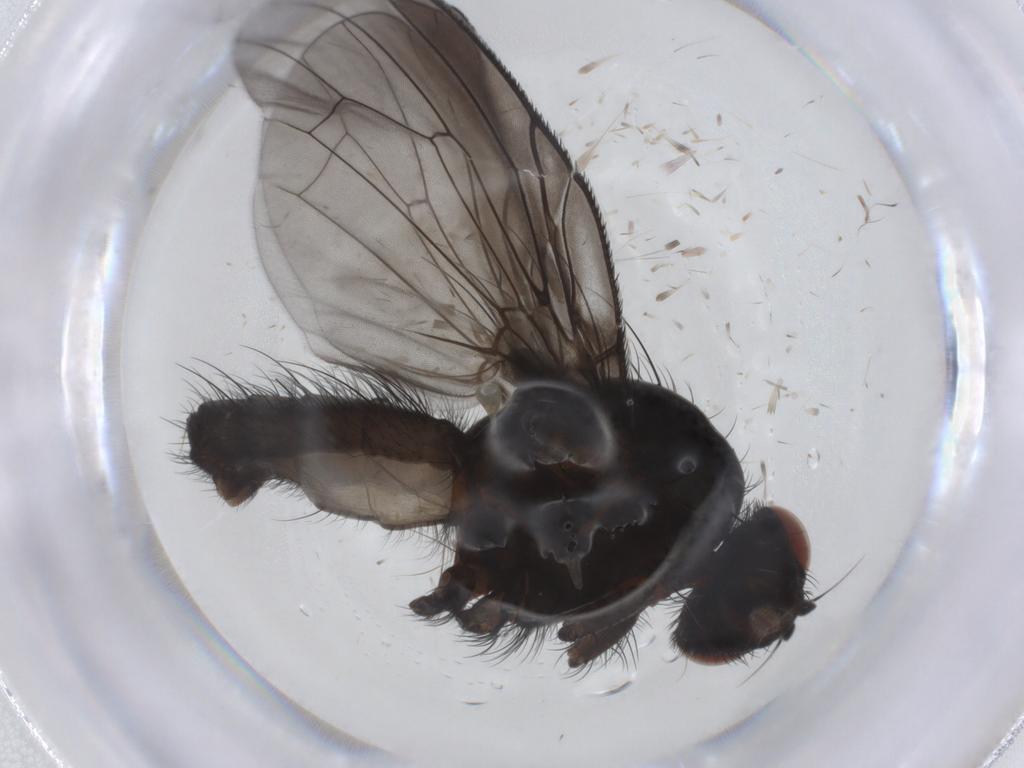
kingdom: Animalia
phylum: Arthropoda
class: Insecta
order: Diptera
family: Anthomyiidae
